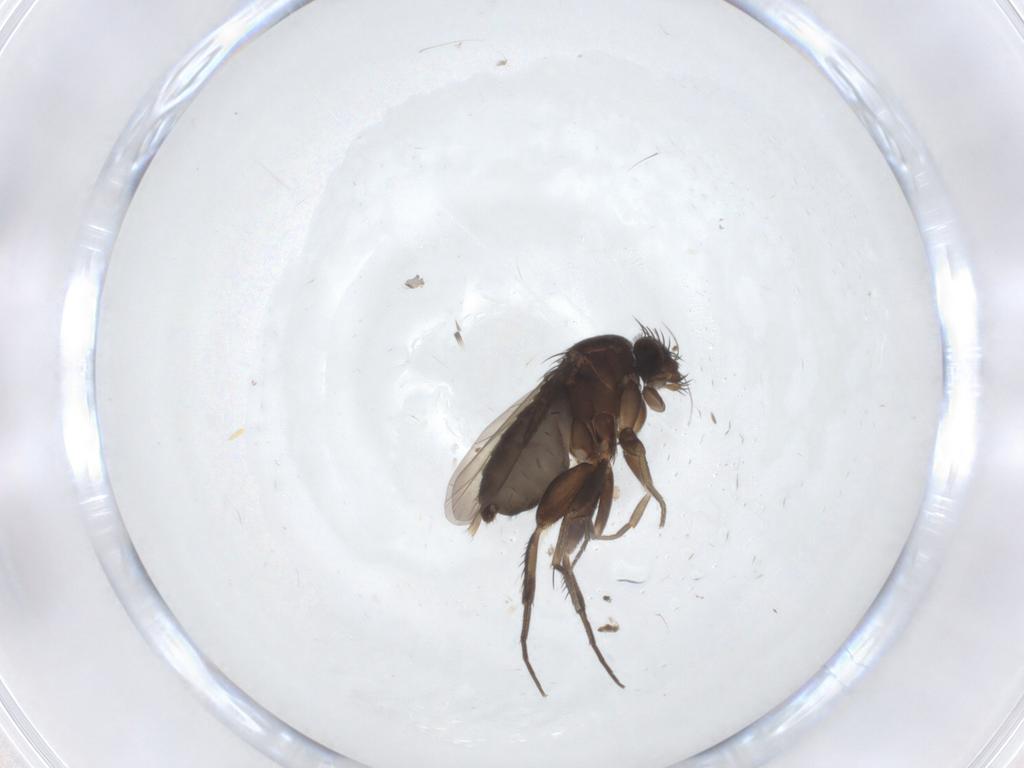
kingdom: Animalia
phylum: Arthropoda
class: Insecta
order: Diptera
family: Phoridae
